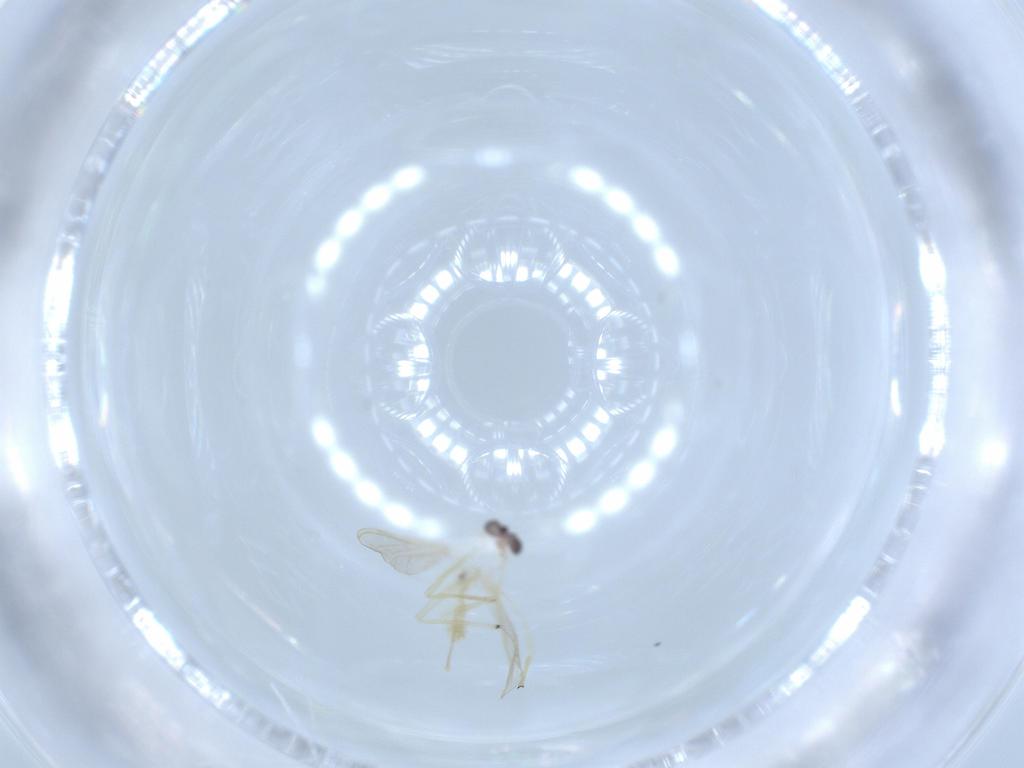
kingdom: Animalia
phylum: Arthropoda
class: Insecta
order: Diptera
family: Chironomidae
